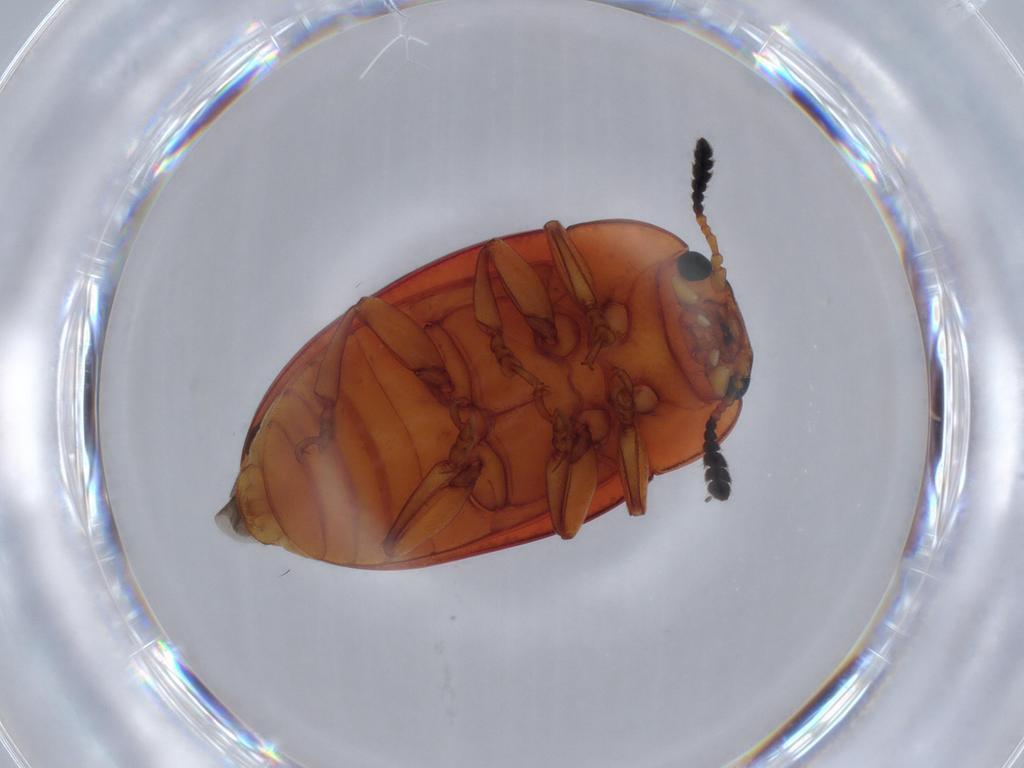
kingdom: Animalia
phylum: Arthropoda
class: Insecta
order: Coleoptera
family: Erotylidae
